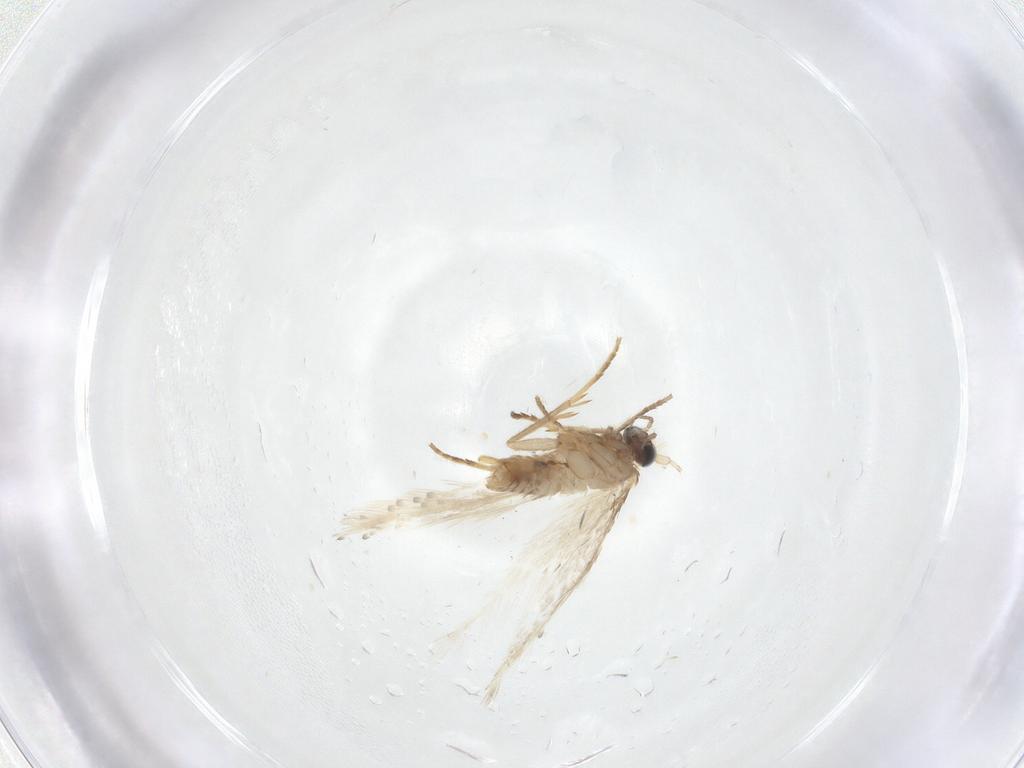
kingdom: Animalia
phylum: Arthropoda
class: Insecta
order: Lepidoptera
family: Nepticulidae
